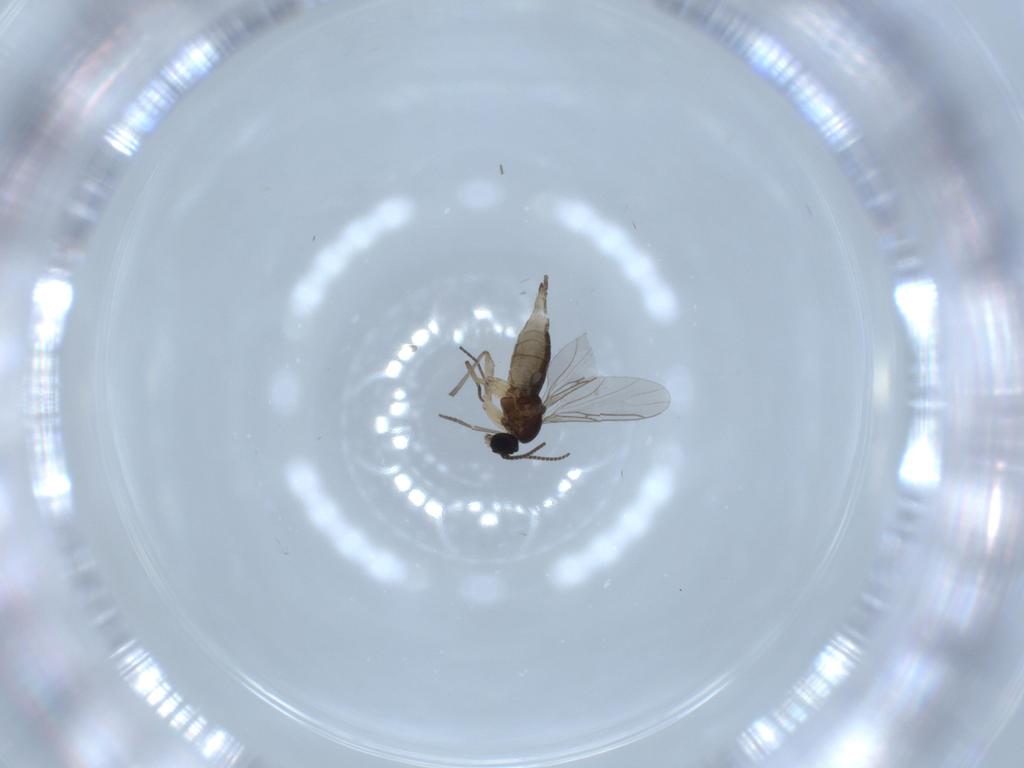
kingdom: Animalia
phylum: Arthropoda
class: Insecta
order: Diptera
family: Sciaridae
